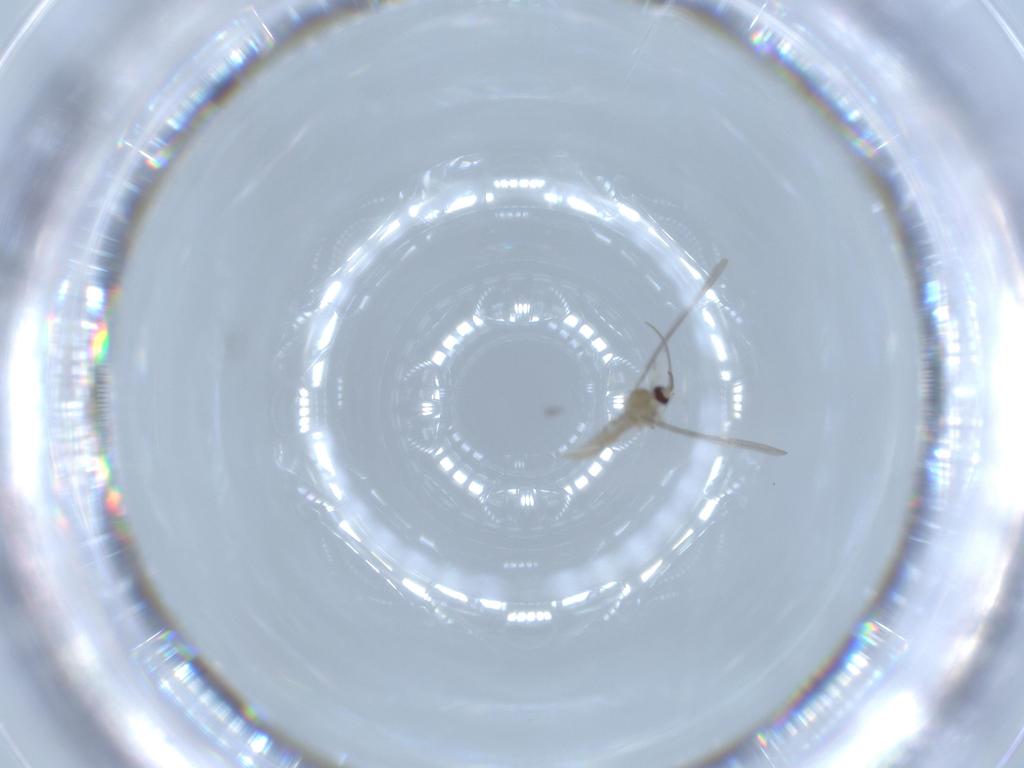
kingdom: Animalia
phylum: Arthropoda
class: Insecta
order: Diptera
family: Cecidomyiidae
